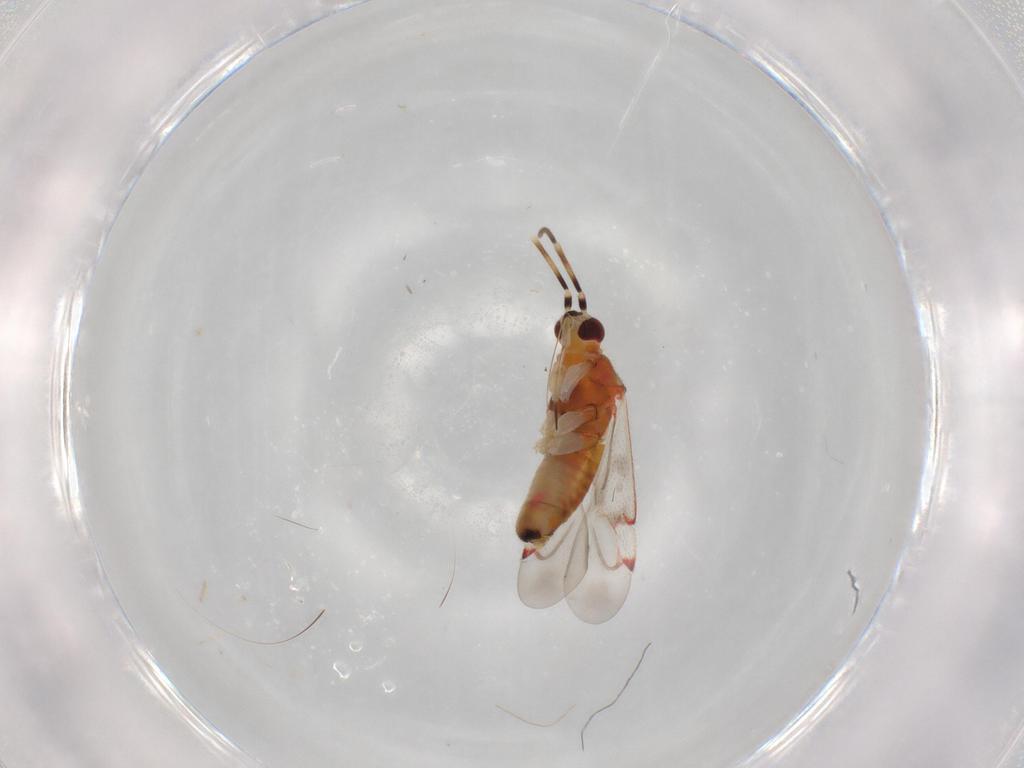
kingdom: Animalia
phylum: Arthropoda
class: Insecta
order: Hemiptera
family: Miridae
